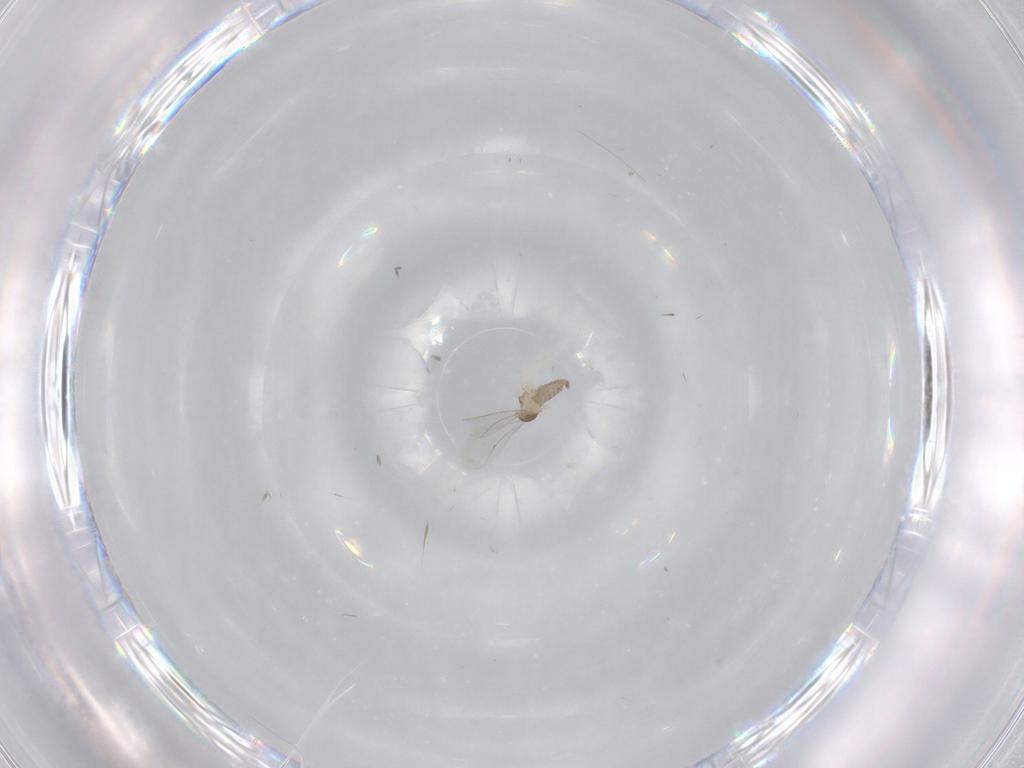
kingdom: Animalia
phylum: Arthropoda
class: Insecta
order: Diptera
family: Cecidomyiidae
